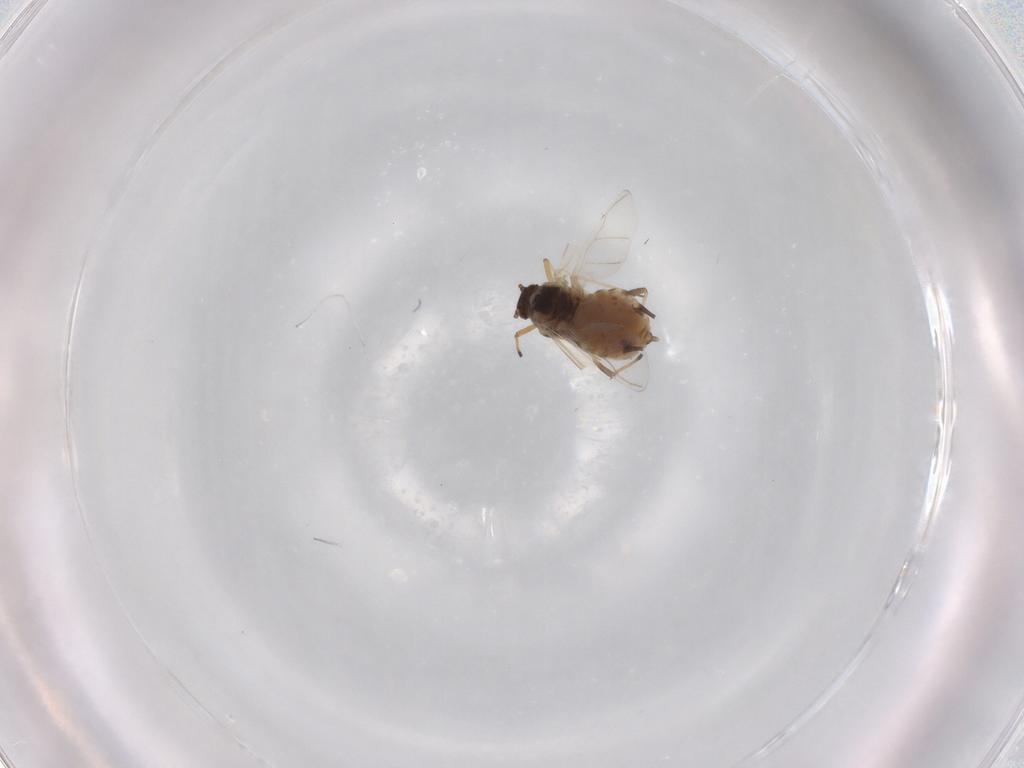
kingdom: Animalia
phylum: Arthropoda
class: Insecta
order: Hemiptera
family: Aphididae
